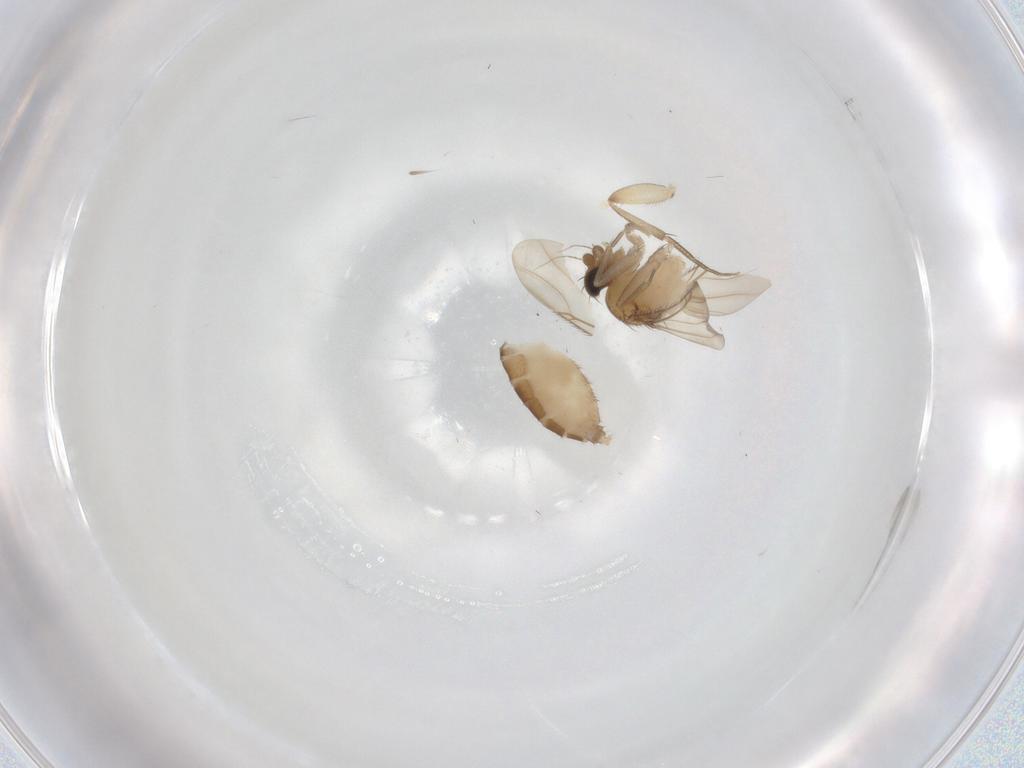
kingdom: Animalia
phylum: Arthropoda
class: Insecta
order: Diptera
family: Phoridae
